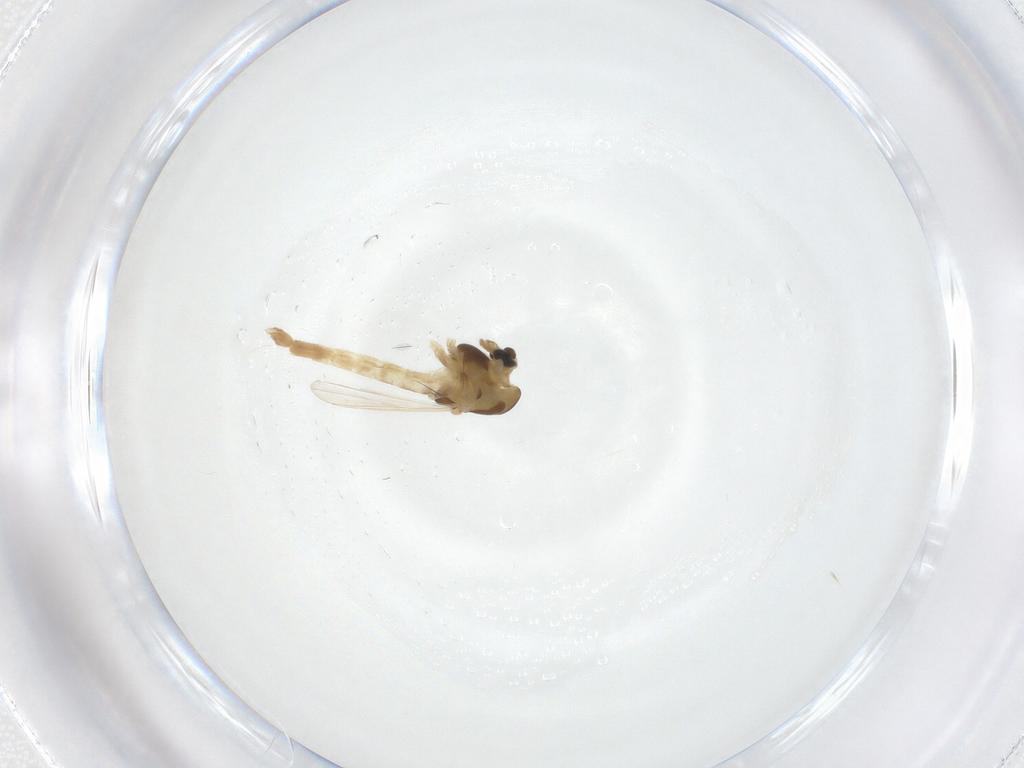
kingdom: Animalia
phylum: Arthropoda
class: Insecta
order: Diptera
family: Chironomidae
